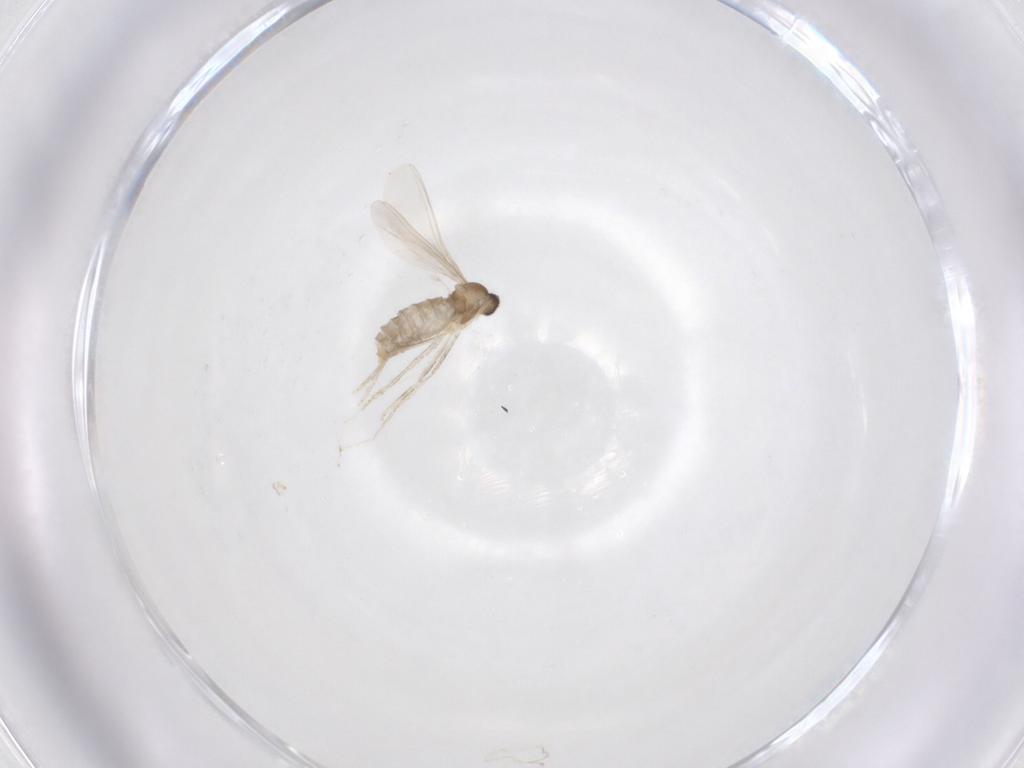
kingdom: Animalia
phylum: Arthropoda
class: Insecta
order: Diptera
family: Cecidomyiidae
